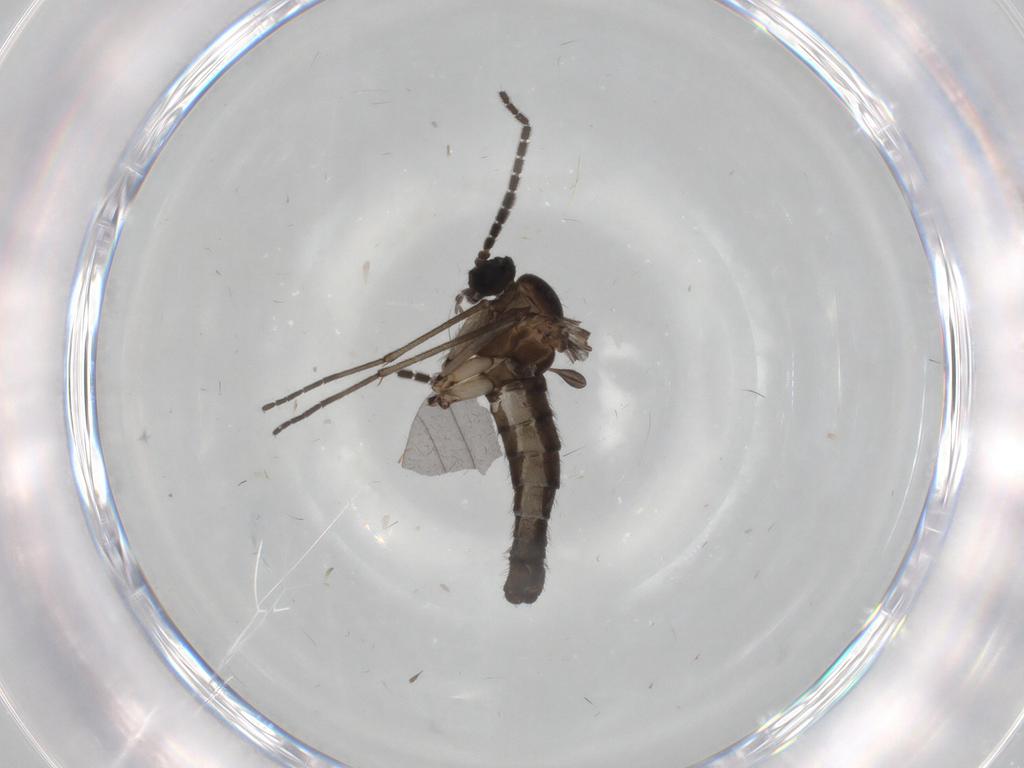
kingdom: Animalia
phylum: Arthropoda
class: Insecta
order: Diptera
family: Sciaridae
